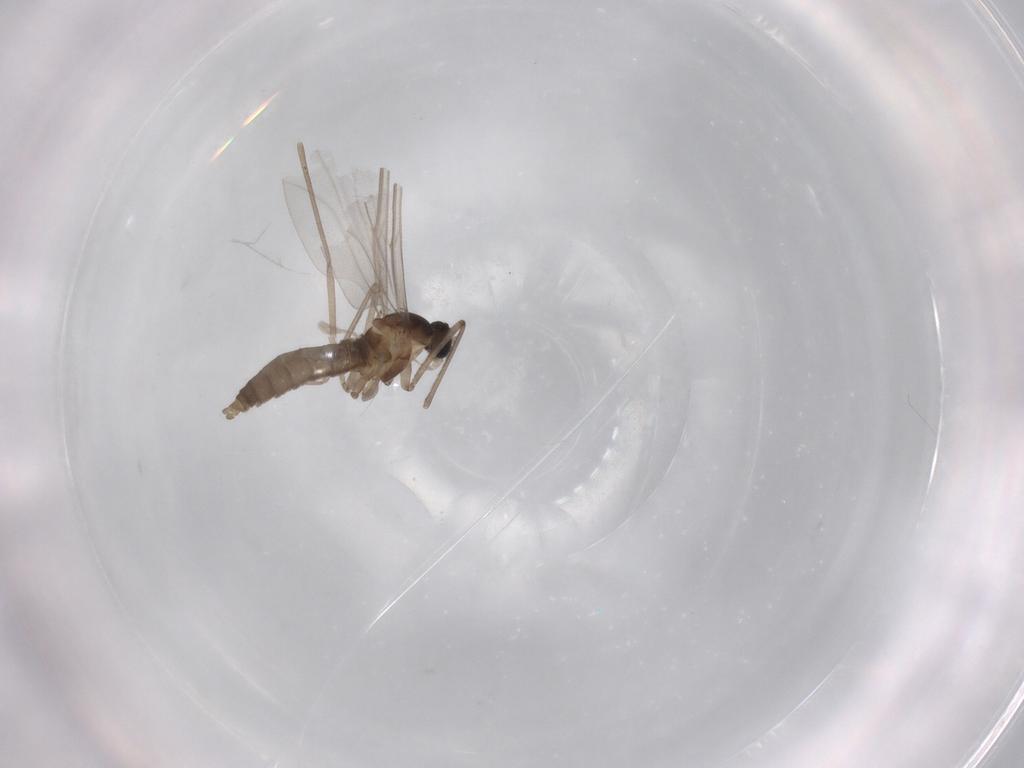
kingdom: Animalia
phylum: Arthropoda
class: Insecta
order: Diptera
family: Cecidomyiidae
